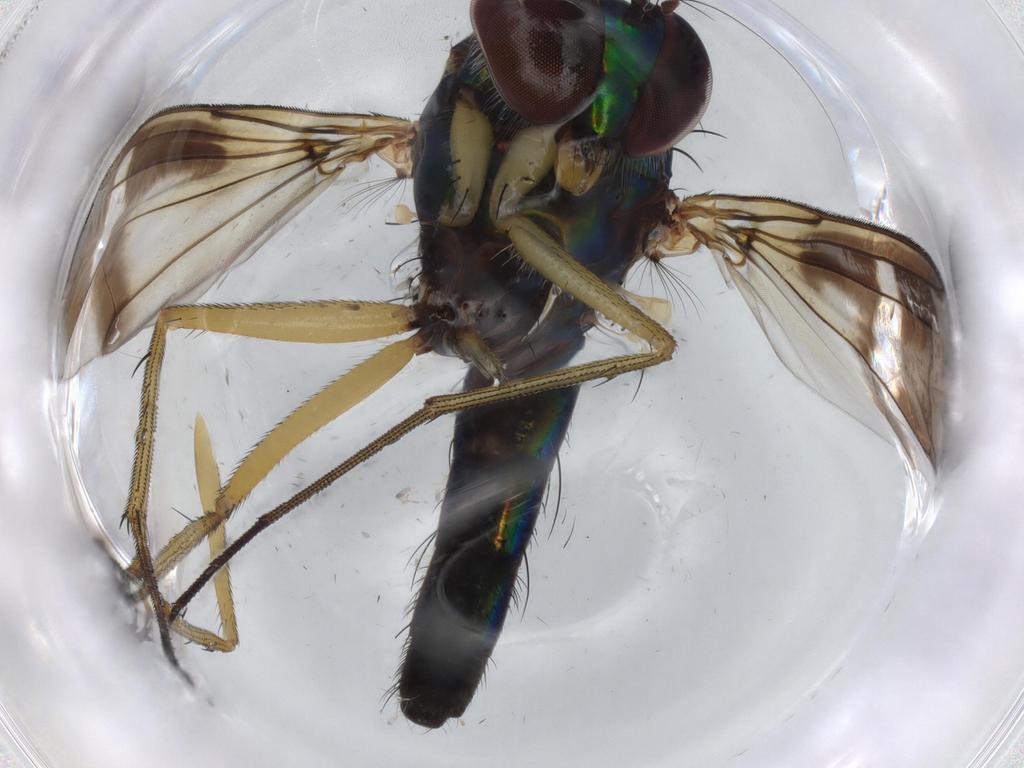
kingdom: Animalia
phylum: Arthropoda
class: Insecta
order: Diptera
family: Dolichopodidae
